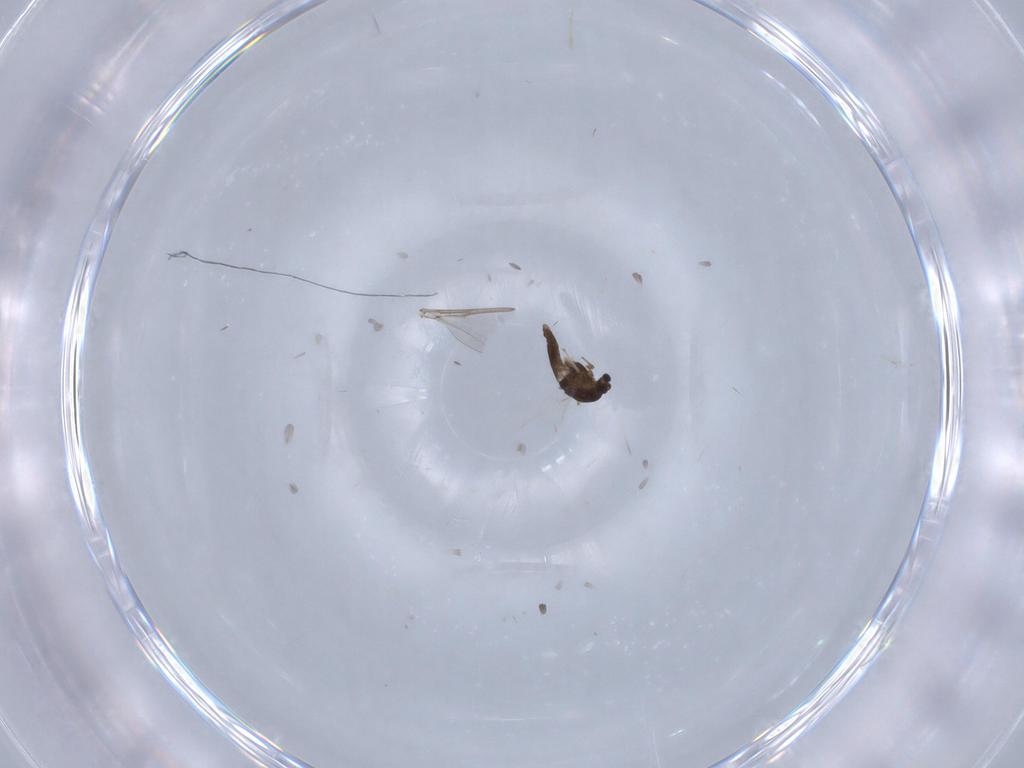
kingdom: Animalia
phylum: Arthropoda
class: Insecta
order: Diptera
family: Chironomidae
